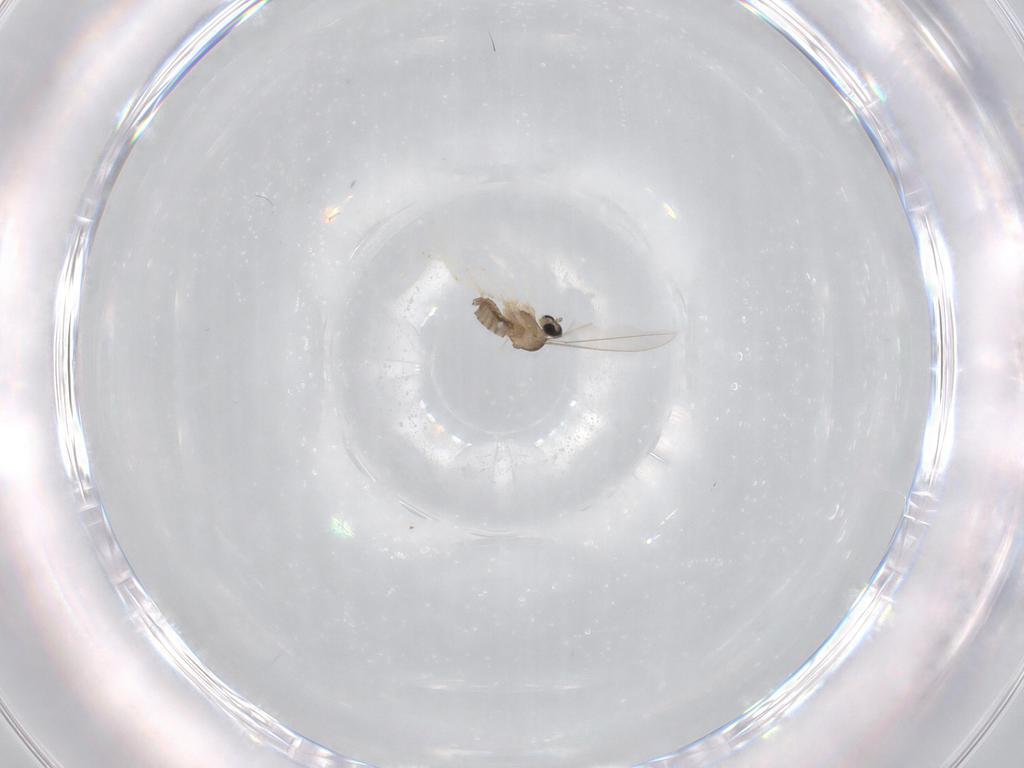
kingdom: Animalia
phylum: Arthropoda
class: Insecta
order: Diptera
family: Cecidomyiidae
